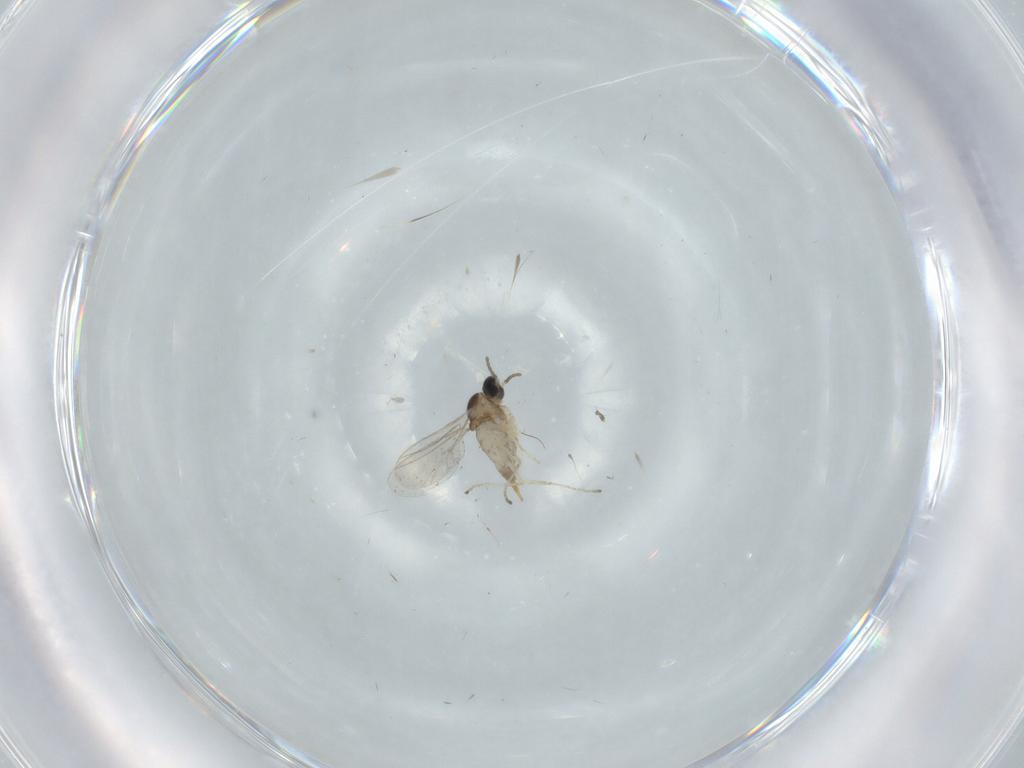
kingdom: Animalia
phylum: Arthropoda
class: Insecta
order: Diptera
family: Cecidomyiidae
